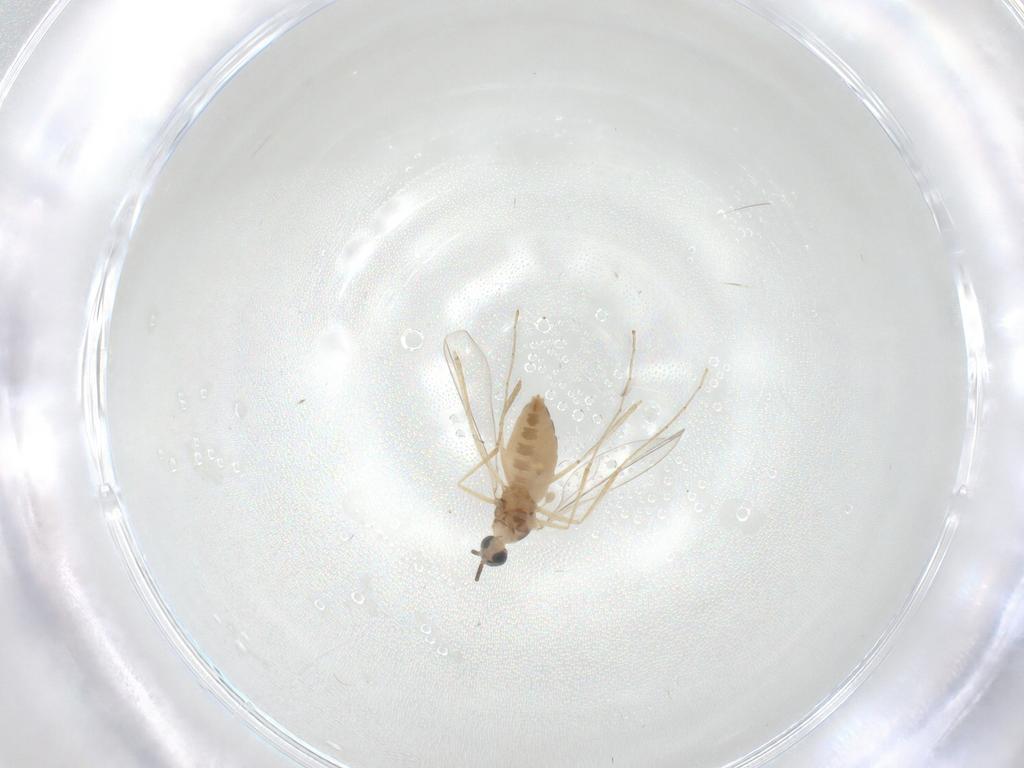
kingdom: Animalia
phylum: Arthropoda
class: Insecta
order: Diptera
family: Cecidomyiidae
